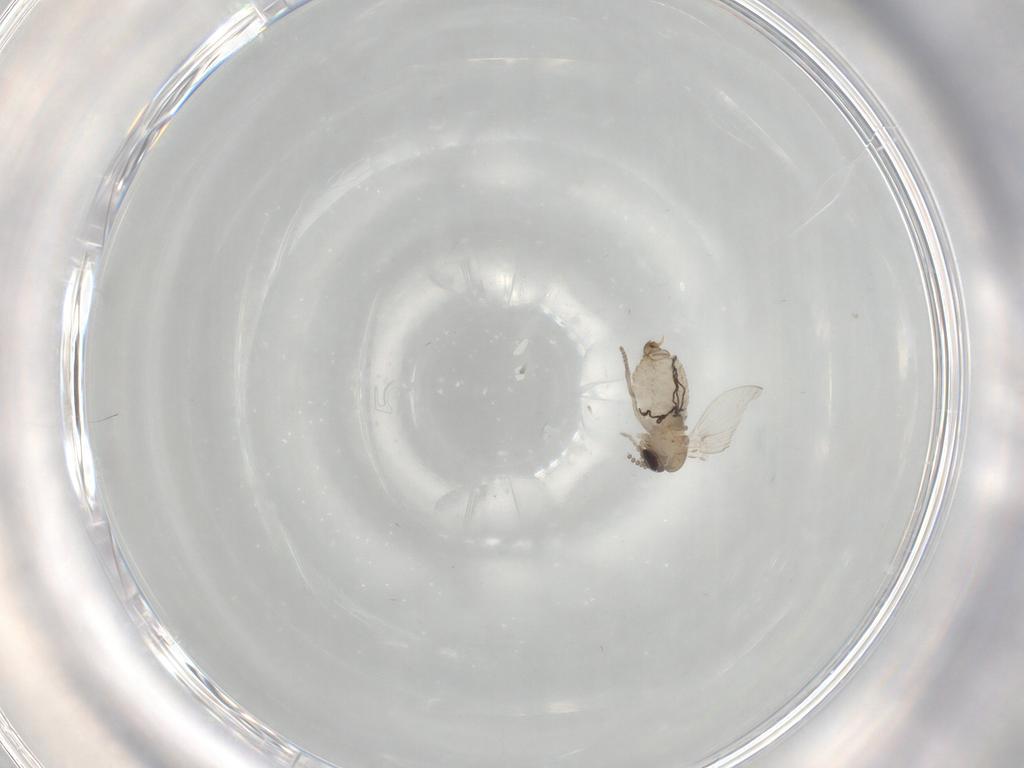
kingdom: Animalia
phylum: Arthropoda
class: Insecta
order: Diptera
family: Psychodidae
